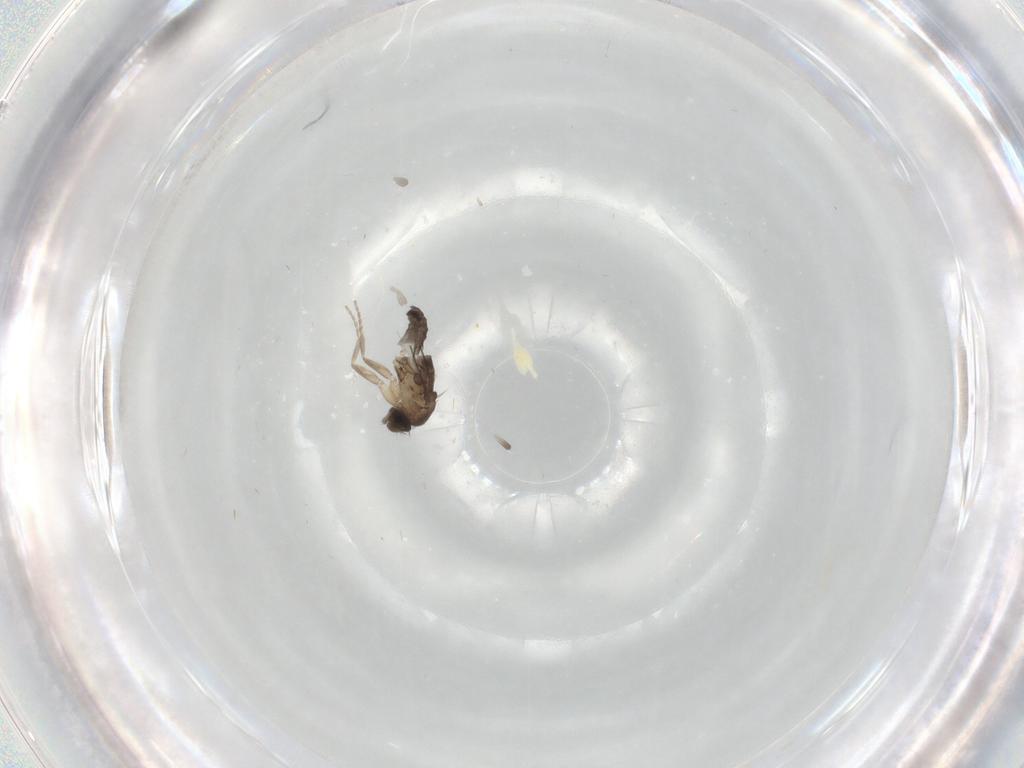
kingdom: Animalia
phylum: Arthropoda
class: Insecta
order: Diptera
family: Phoridae
